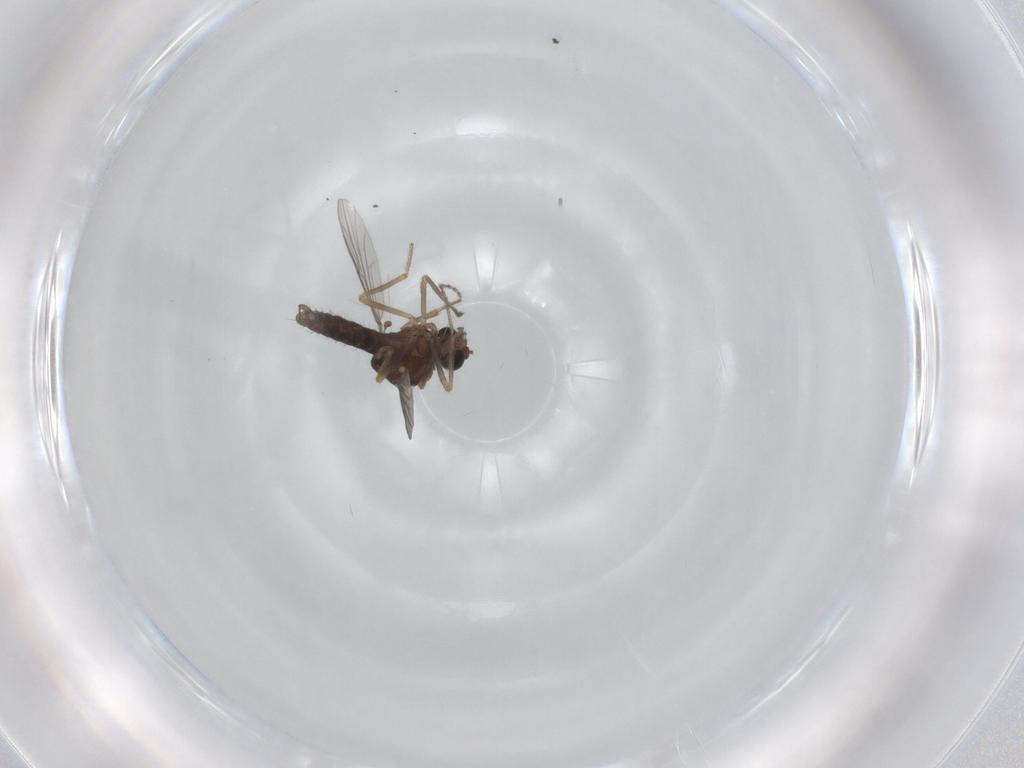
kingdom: Animalia
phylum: Arthropoda
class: Insecta
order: Diptera
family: Ceratopogonidae
